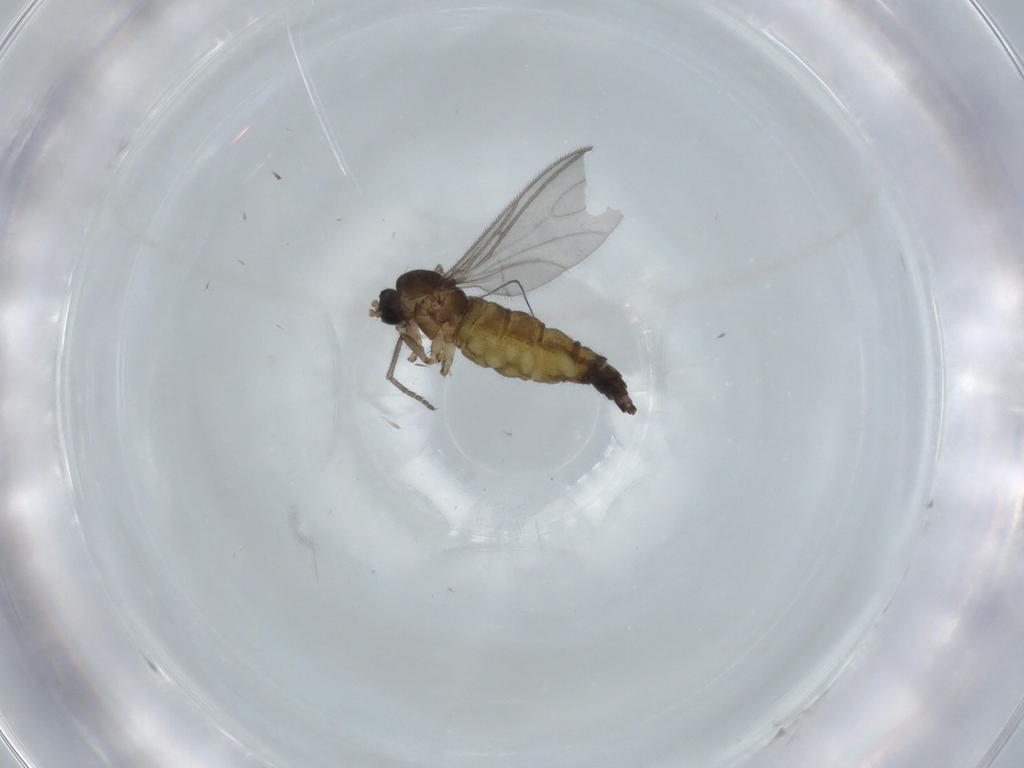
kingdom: Animalia
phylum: Arthropoda
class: Insecta
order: Diptera
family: Sciaridae
